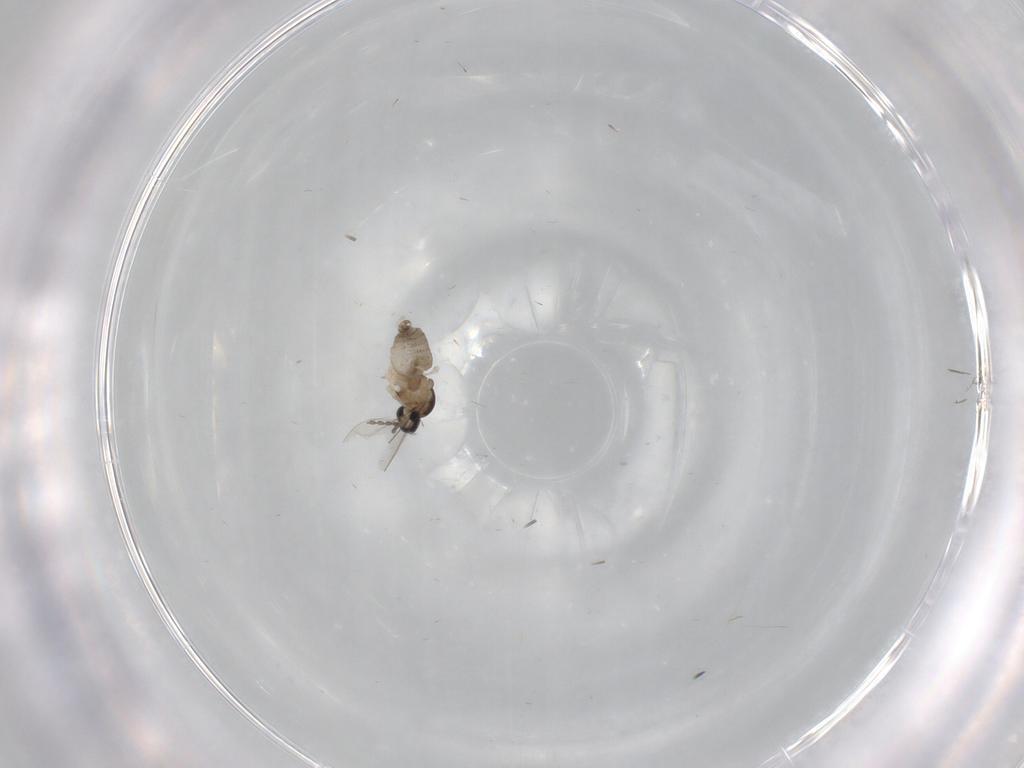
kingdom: Animalia
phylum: Arthropoda
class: Insecta
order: Diptera
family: Cecidomyiidae
